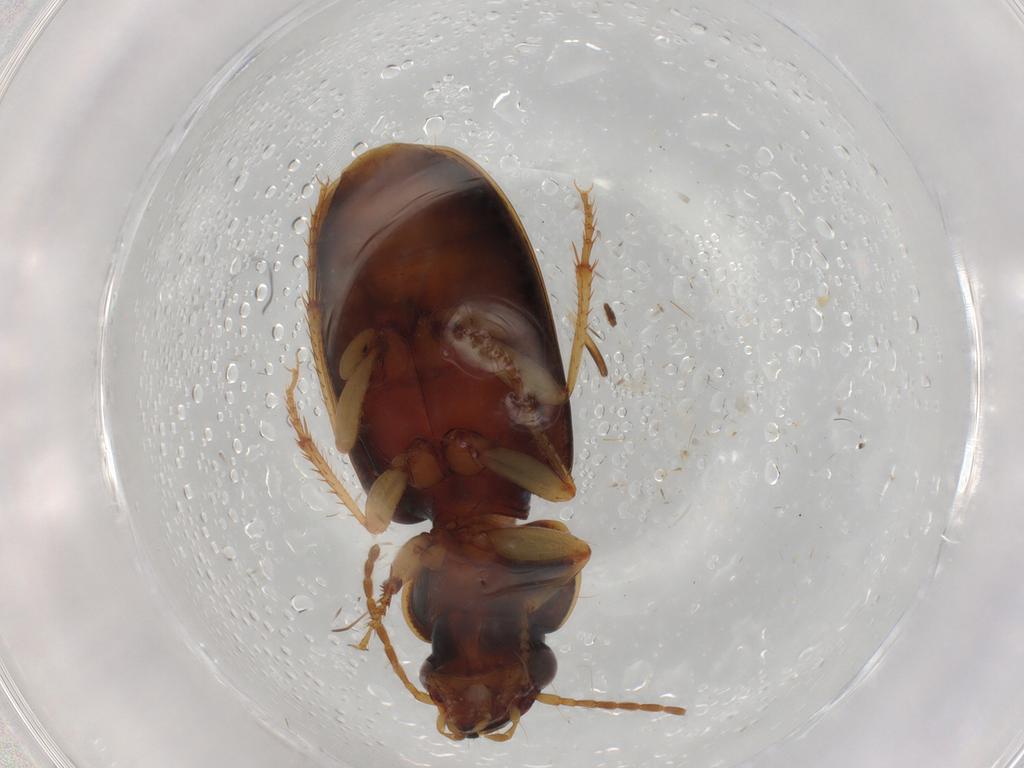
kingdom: Animalia
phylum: Arthropoda
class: Insecta
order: Coleoptera
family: Carabidae
